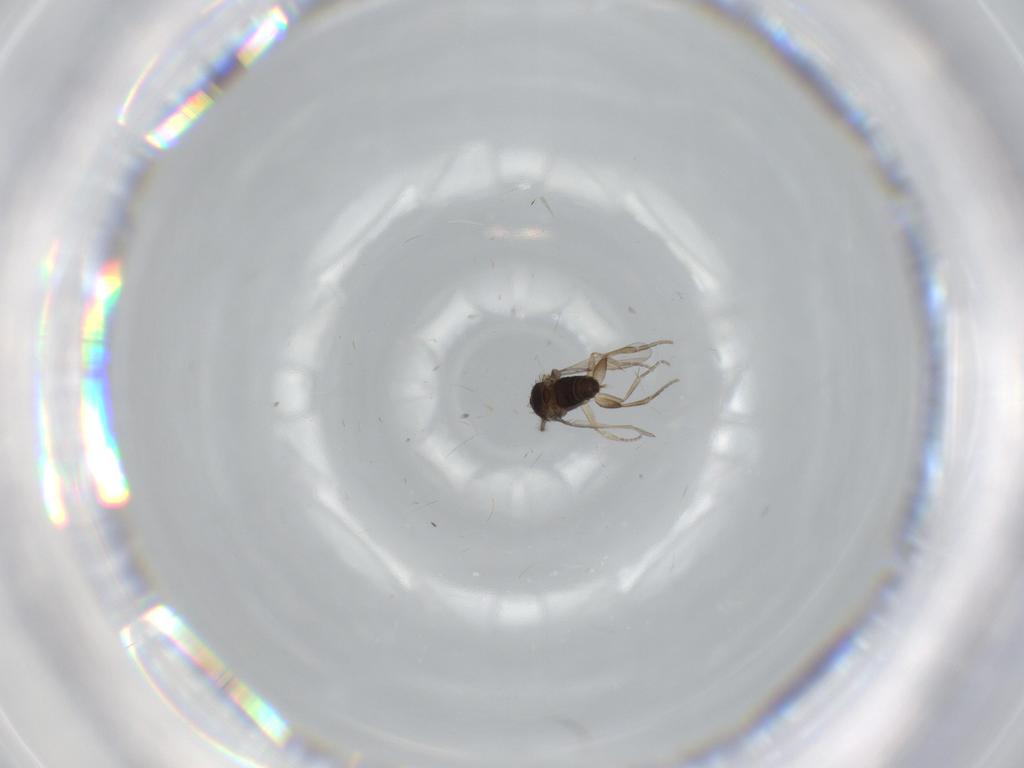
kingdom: Animalia
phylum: Arthropoda
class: Insecta
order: Diptera
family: Phoridae
